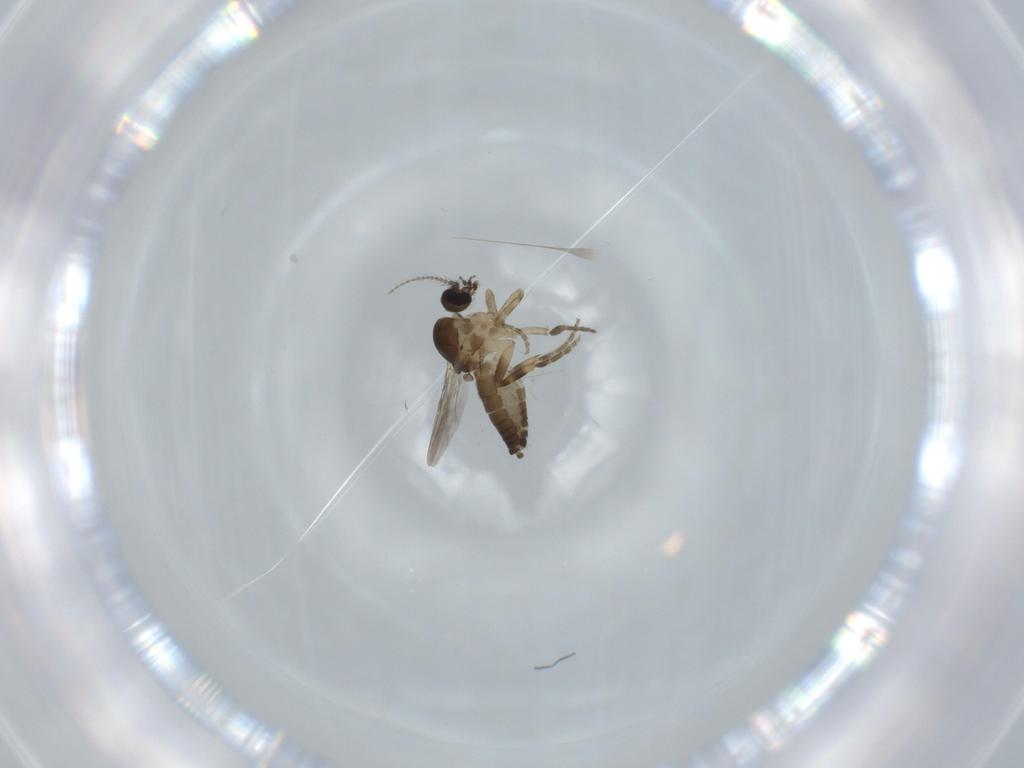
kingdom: Animalia
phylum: Arthropoda
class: Insecta
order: Diptera
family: Ceratopogonidae
